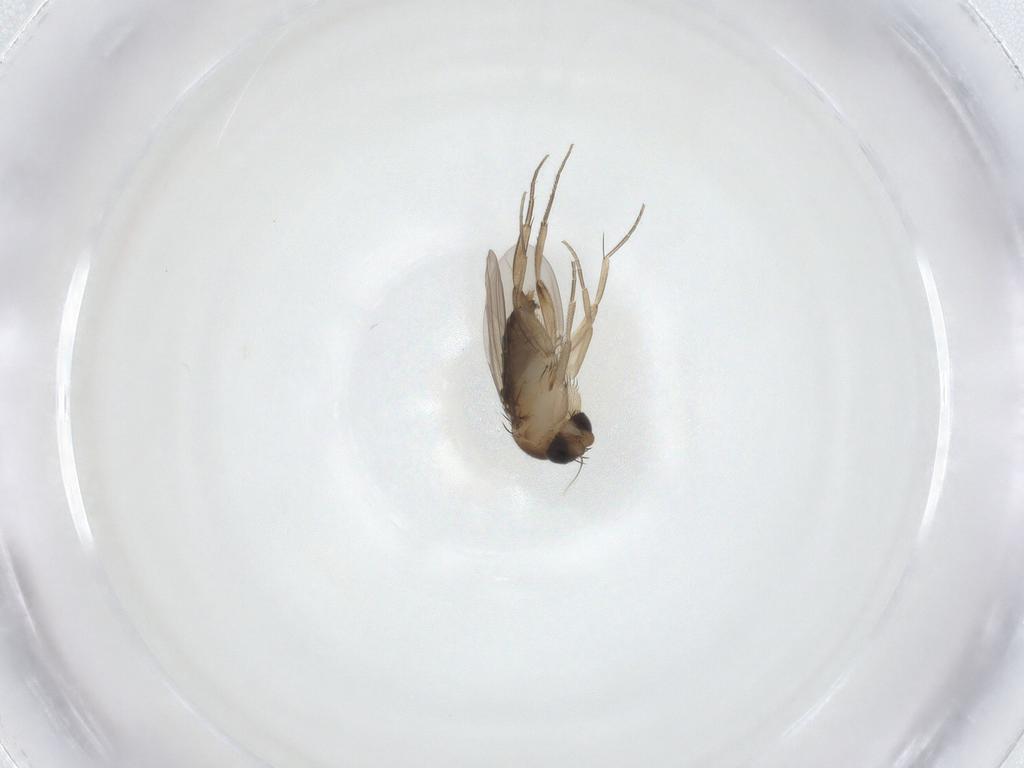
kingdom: Animalia
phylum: Arthropoda
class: Insecta
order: Diptera
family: Phoridae
